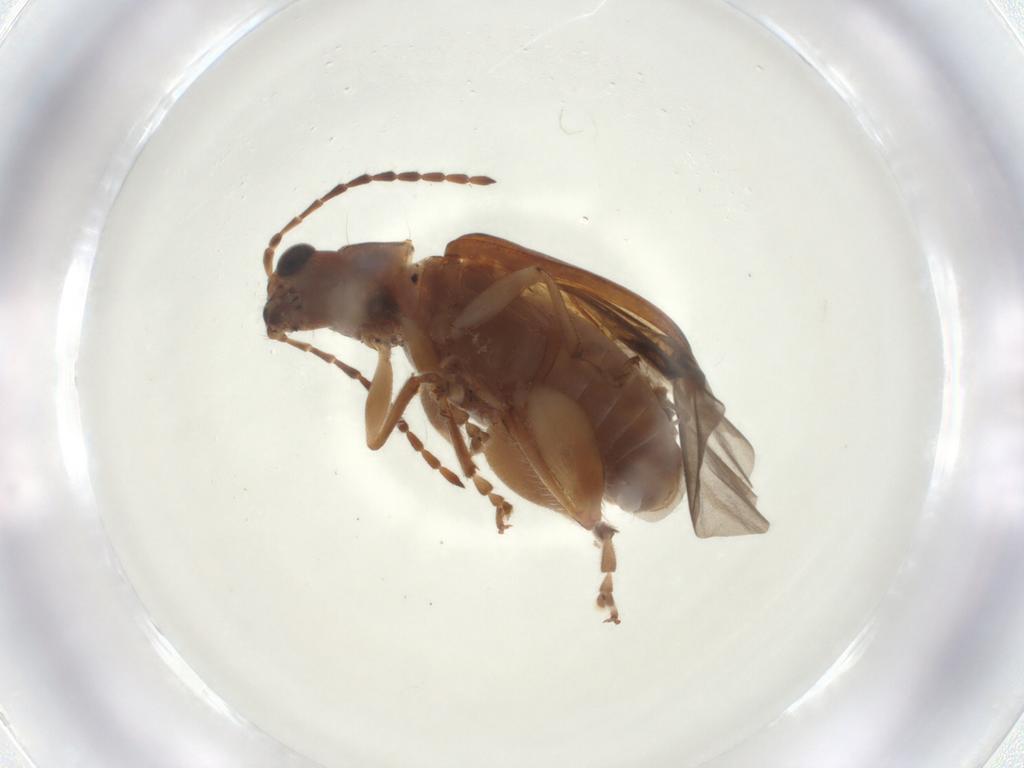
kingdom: Animalia
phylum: Arthropoda
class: Insecta
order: Coleoptera
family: Chrysomelidae
